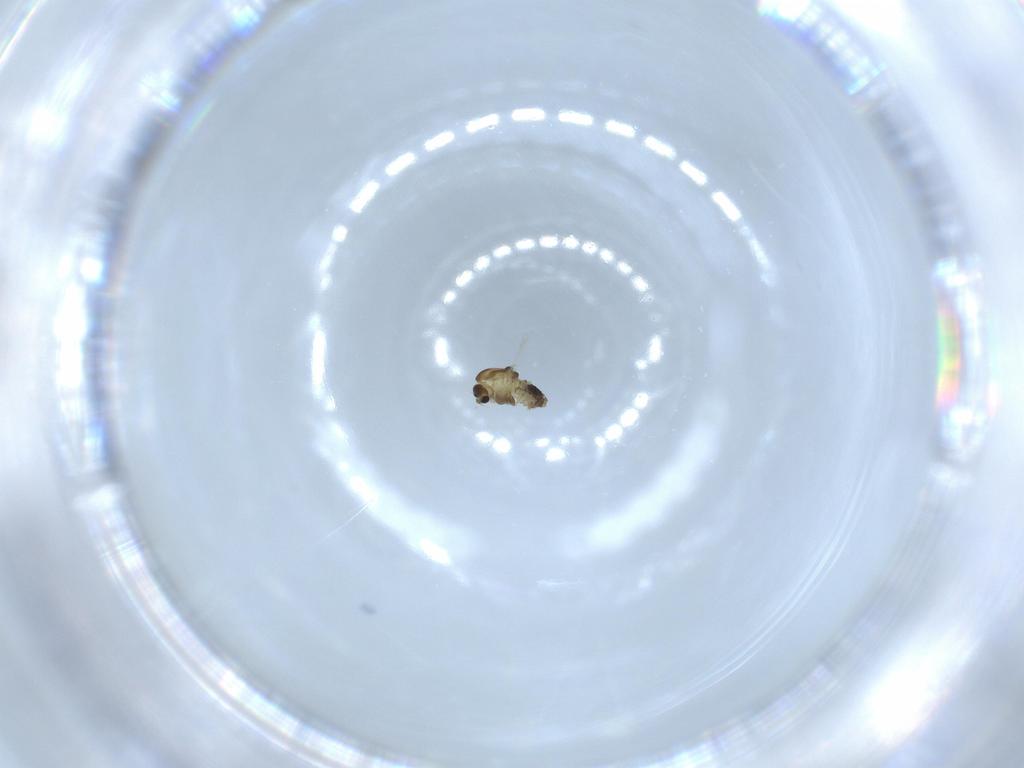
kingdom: Animalia
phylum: Arthropoda
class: Insecta
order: Diptera
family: Chironomidae
